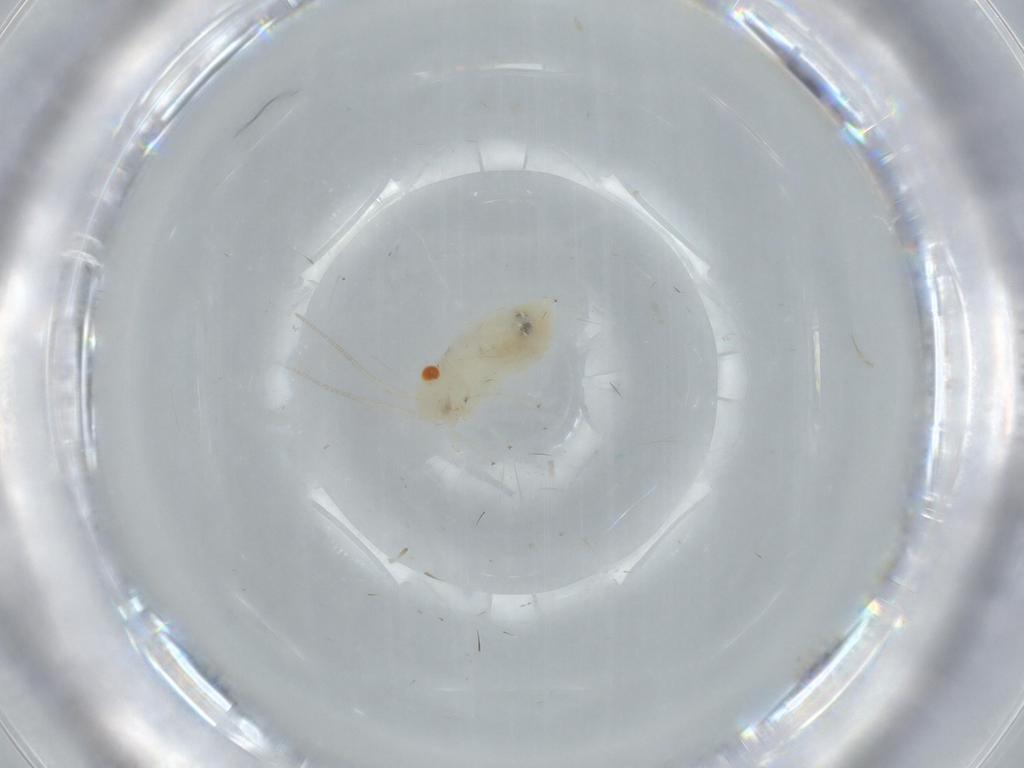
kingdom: Animalia
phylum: Arthropoda
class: Insecta
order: Psocodea
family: Caeciliusidae
